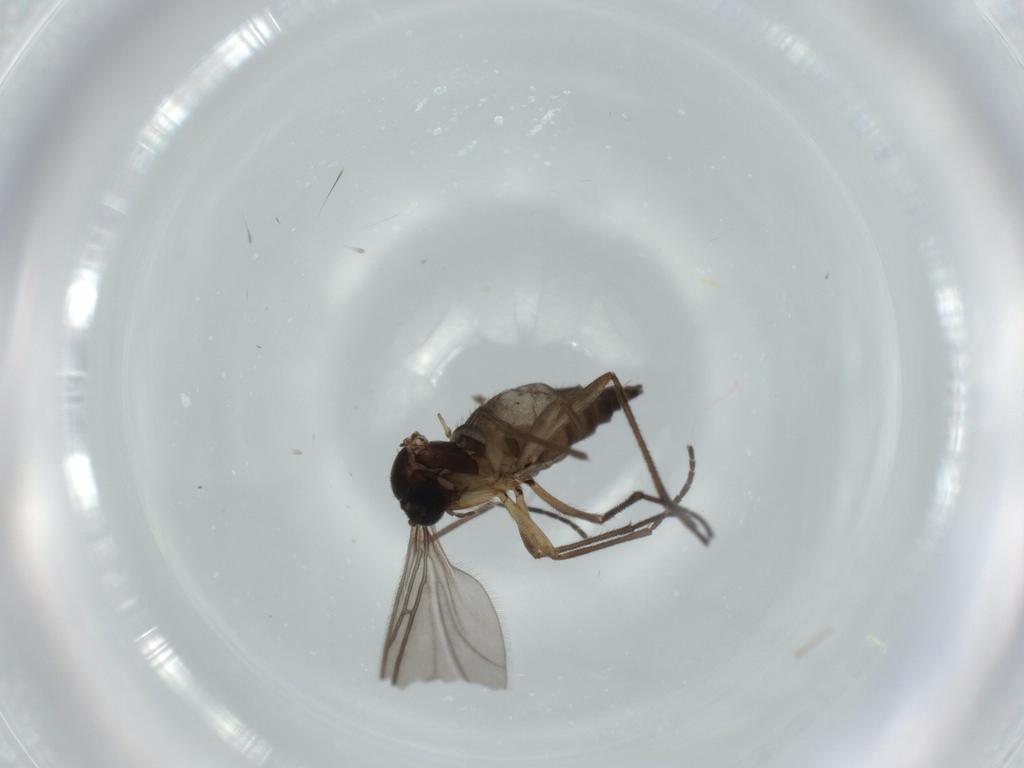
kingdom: Animalia
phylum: Arthropoda
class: Insecta
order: Diptera
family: Sciaridae
